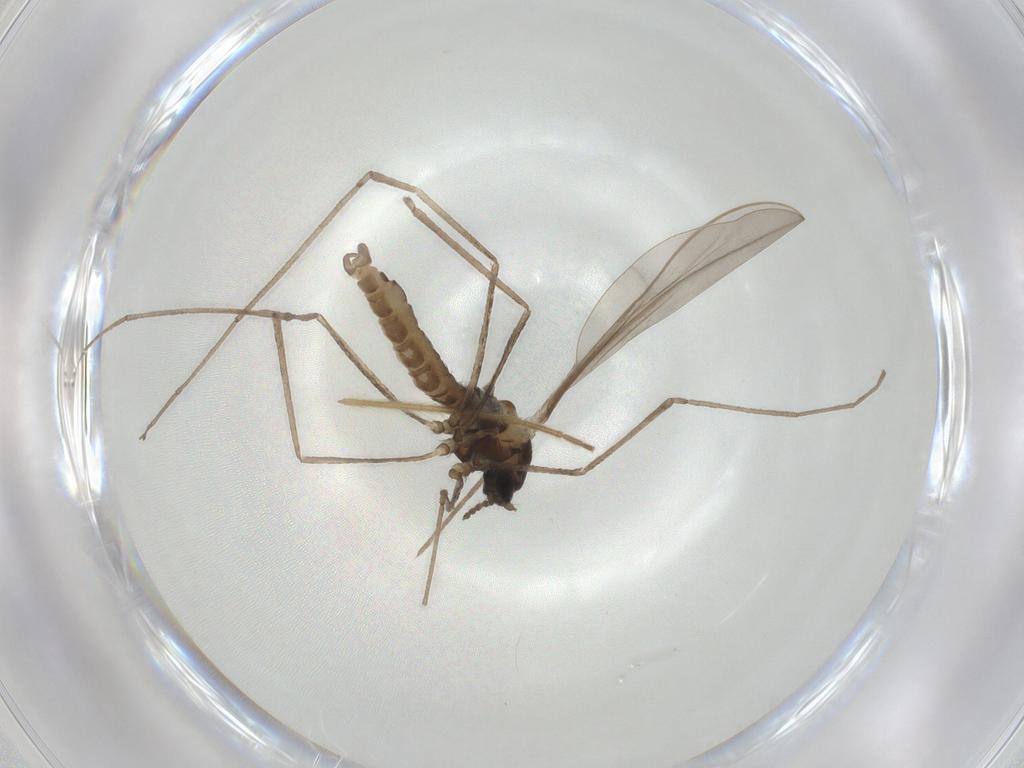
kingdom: Animalia
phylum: Arthropoda
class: Insecta
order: Diptera
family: Cecidomyiidae
